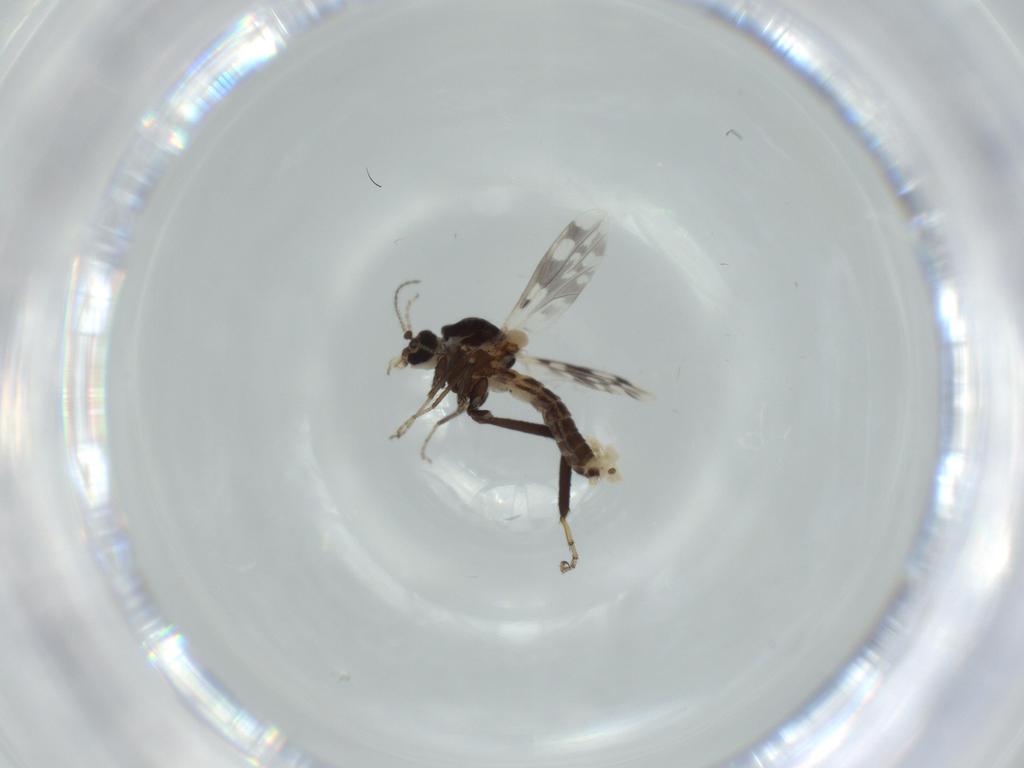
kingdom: Animalia
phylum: Arthropoda
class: Insecta
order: Diptera
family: Ceratopogonidae
